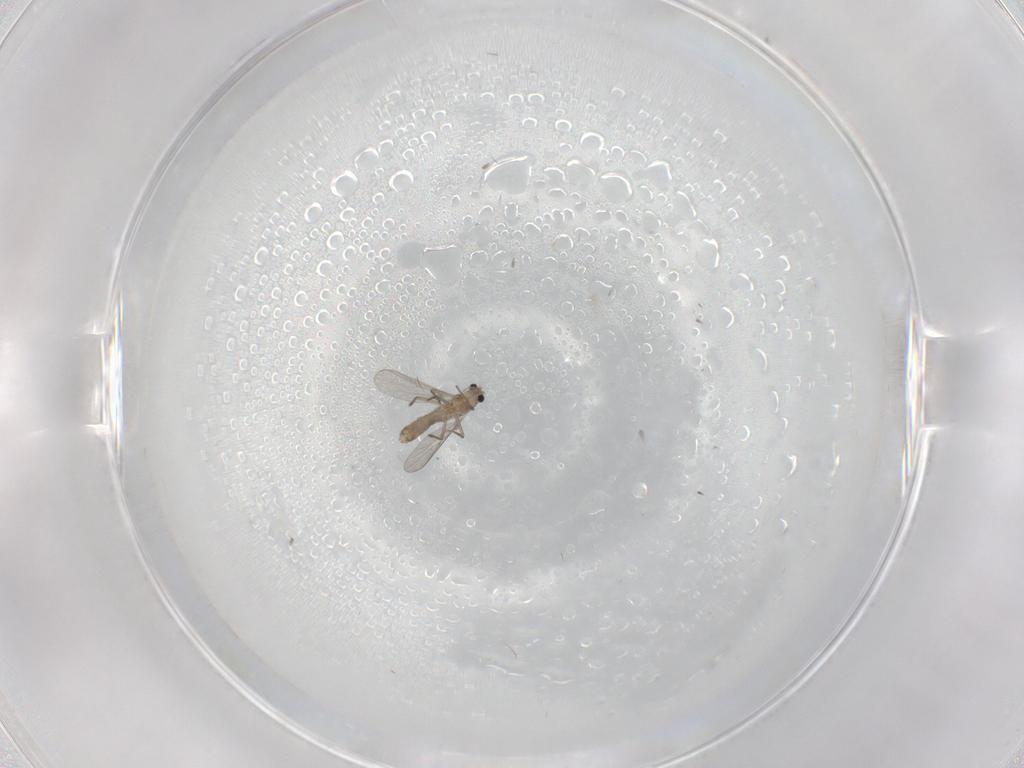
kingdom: Animalia
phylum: Arthropoda
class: Insecta
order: Diptera
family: Chironomidae
